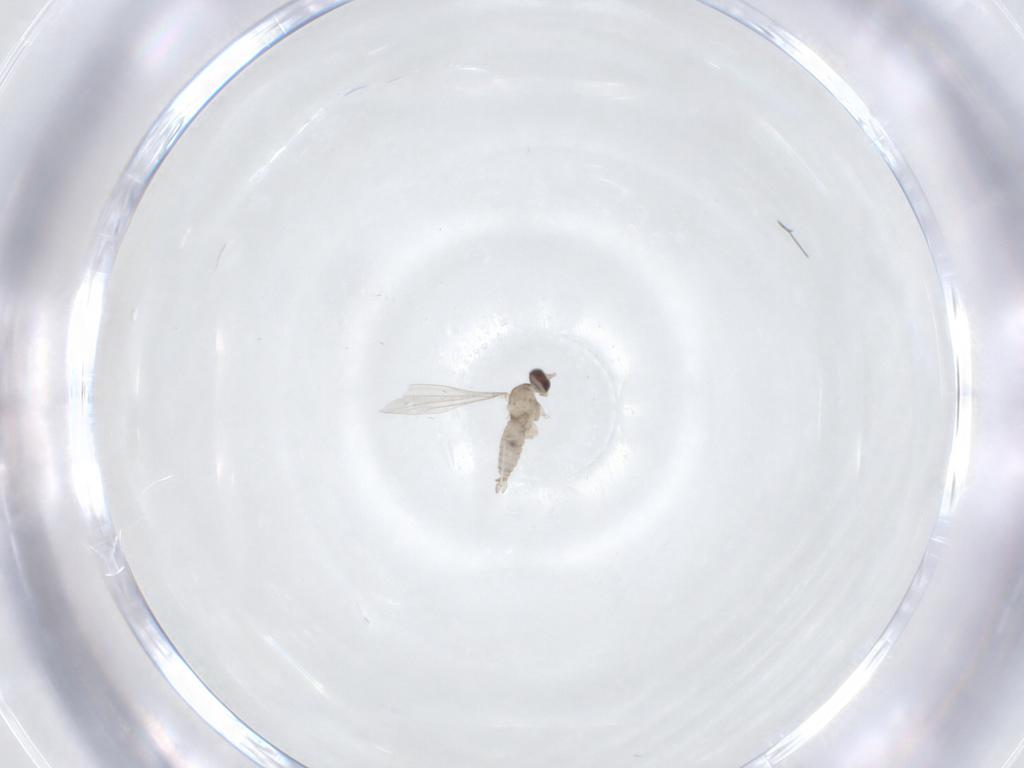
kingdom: Animalia
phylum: Arthropoda
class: Insecta
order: Diptera
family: Cecidomyiidae
